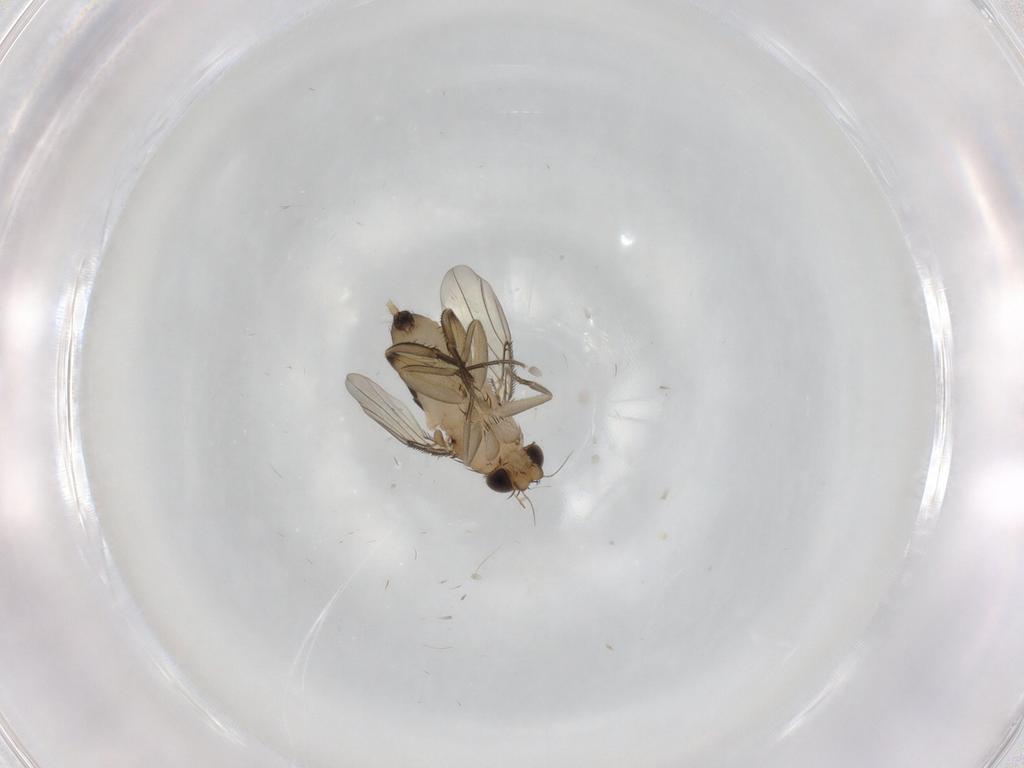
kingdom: Animalia
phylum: Arthropoda
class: Insecta
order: Diptera
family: Phoridae
